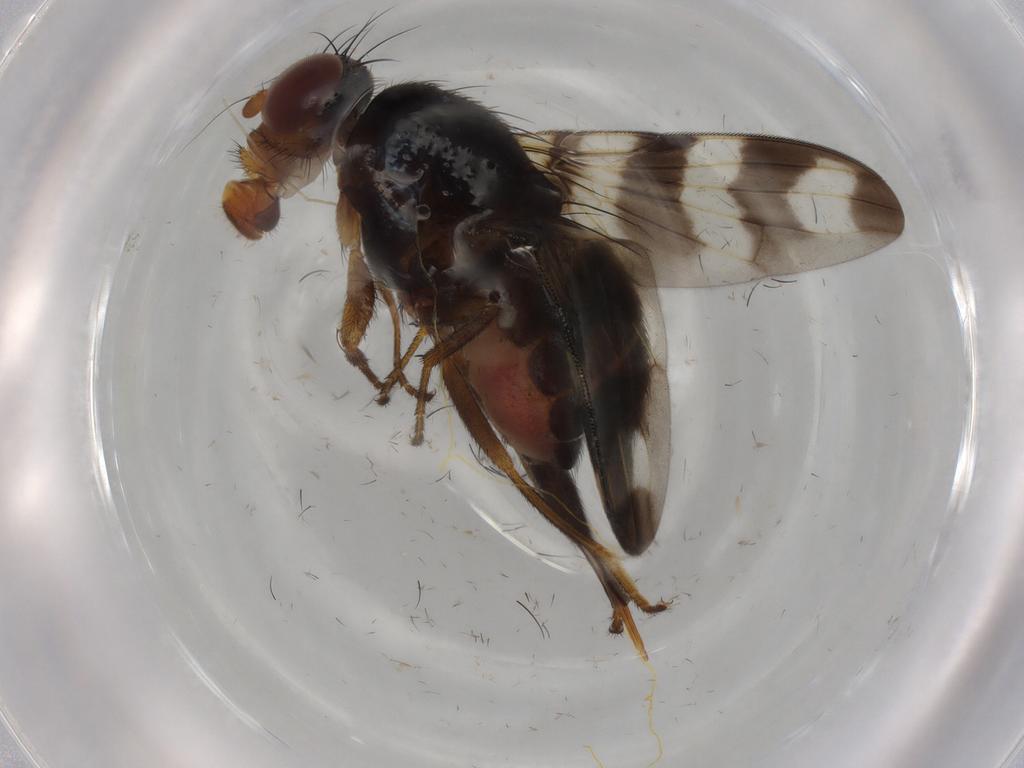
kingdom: Animalia
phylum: Arthropoda
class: Insecta
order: Diptera
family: Ulidiidae
